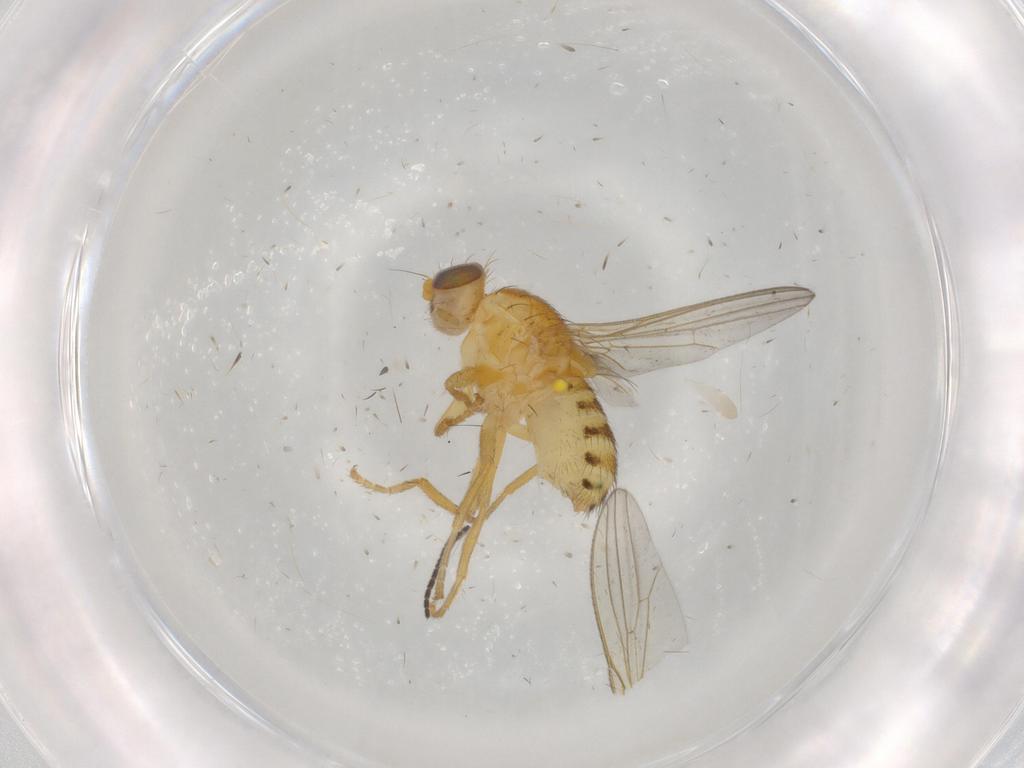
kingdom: Animalia
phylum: Arthropoda
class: Insecta
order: Diptera
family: Chyromyidae
